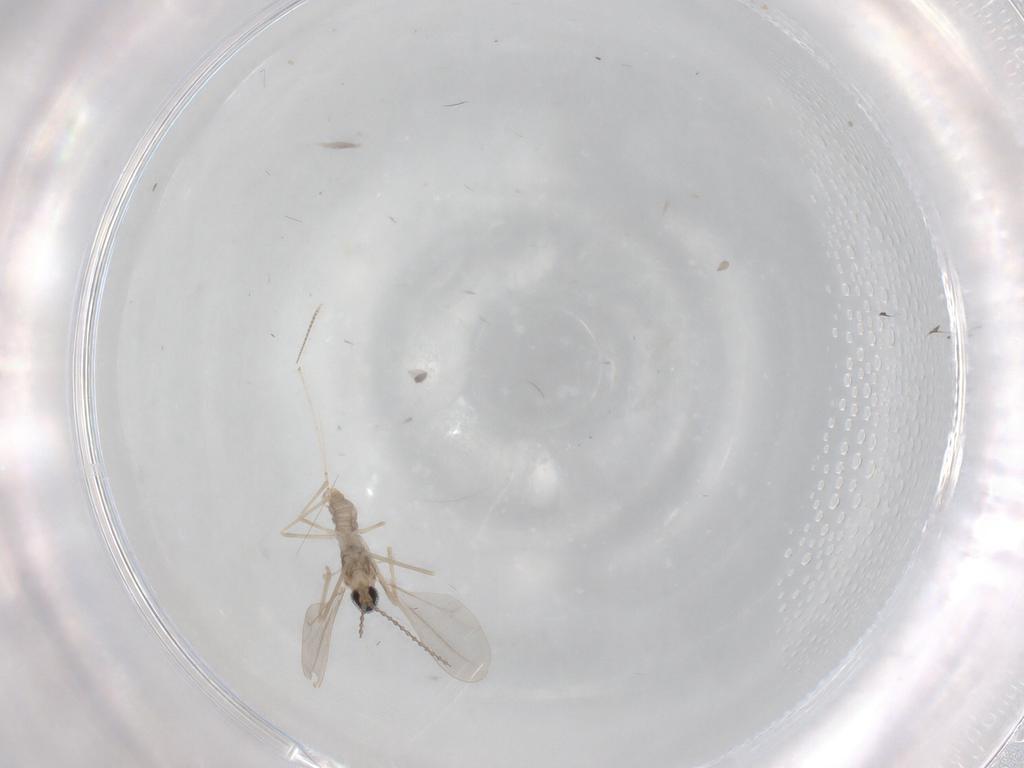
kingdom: Animalia
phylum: Arthropoda
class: Insecta
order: Diptera
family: Cecidomyiidae
